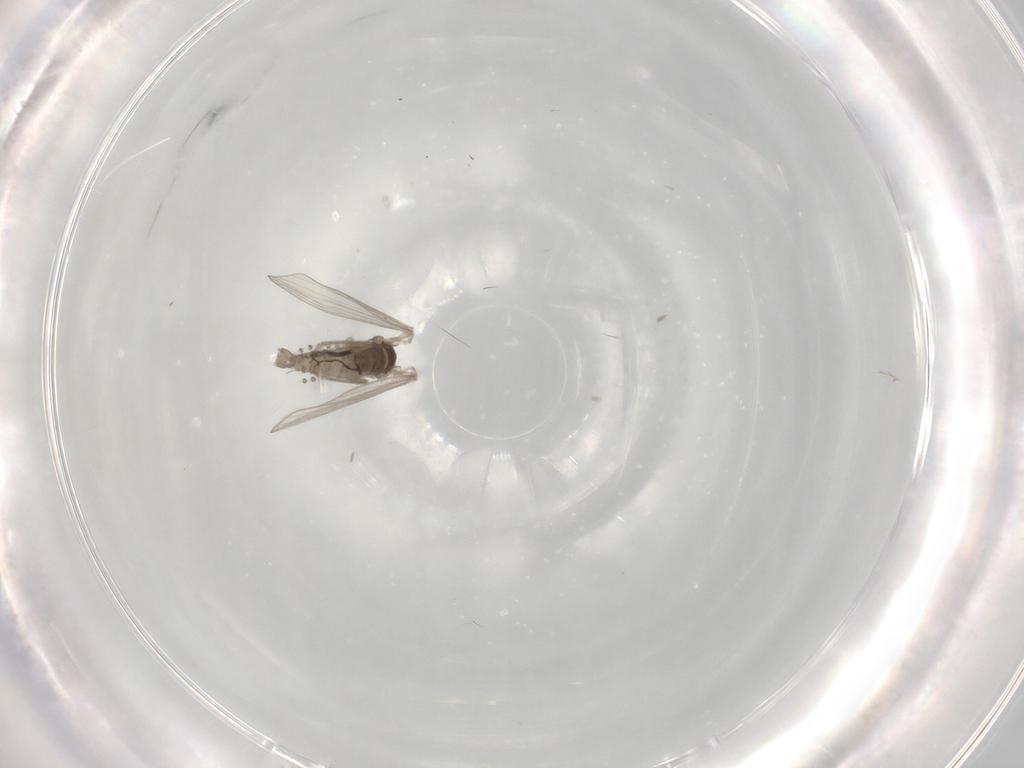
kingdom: Animalia
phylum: Arthropoda
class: Insecta
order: Diptera
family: Psychodidae
